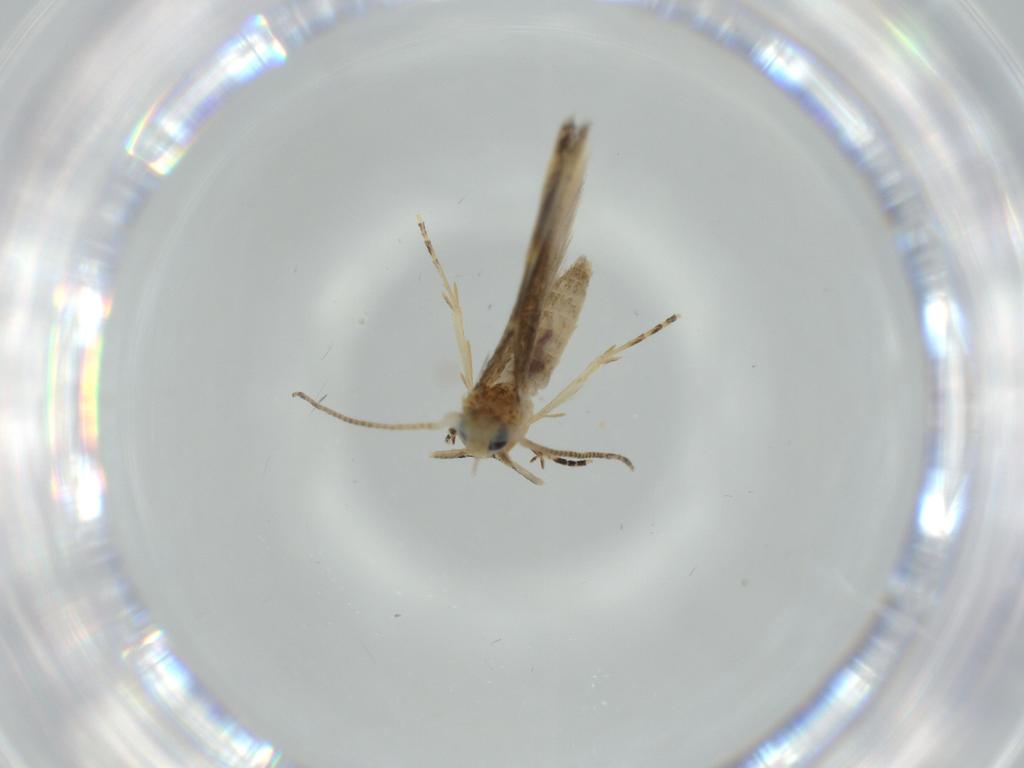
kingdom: Animalia
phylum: Arthropoda
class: Insecta
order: Lepidoptera
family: Bucculatricidae
